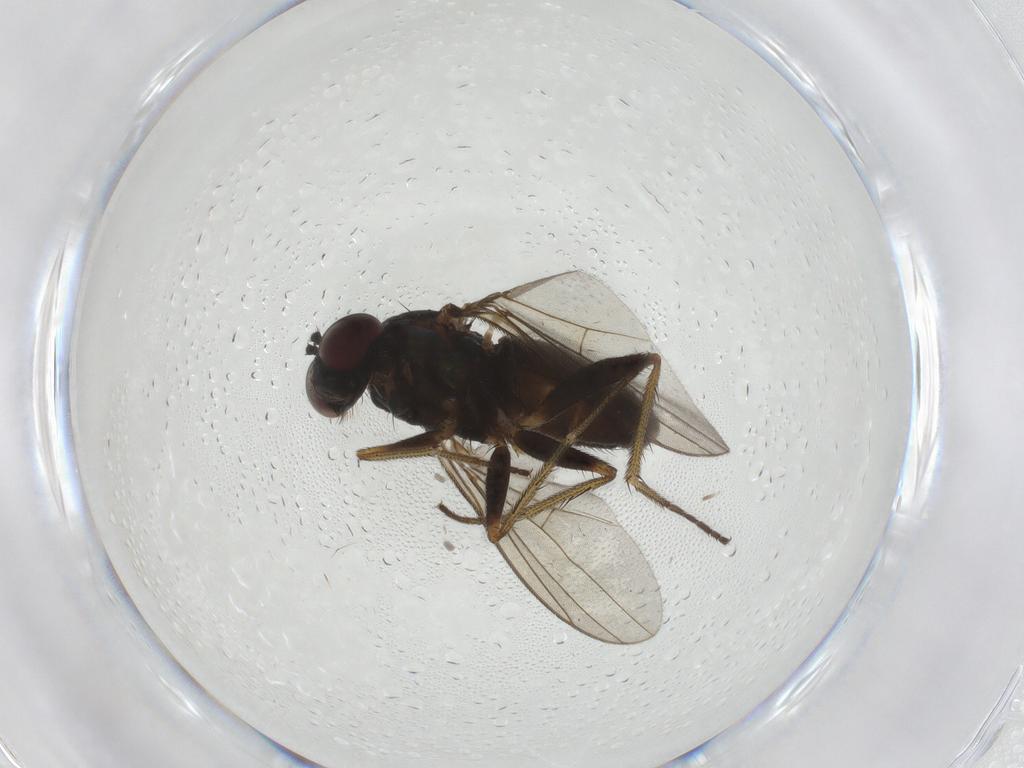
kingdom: Animalia
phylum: Arthropoda
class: Insecta
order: Diptera
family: Dolichopodidae
